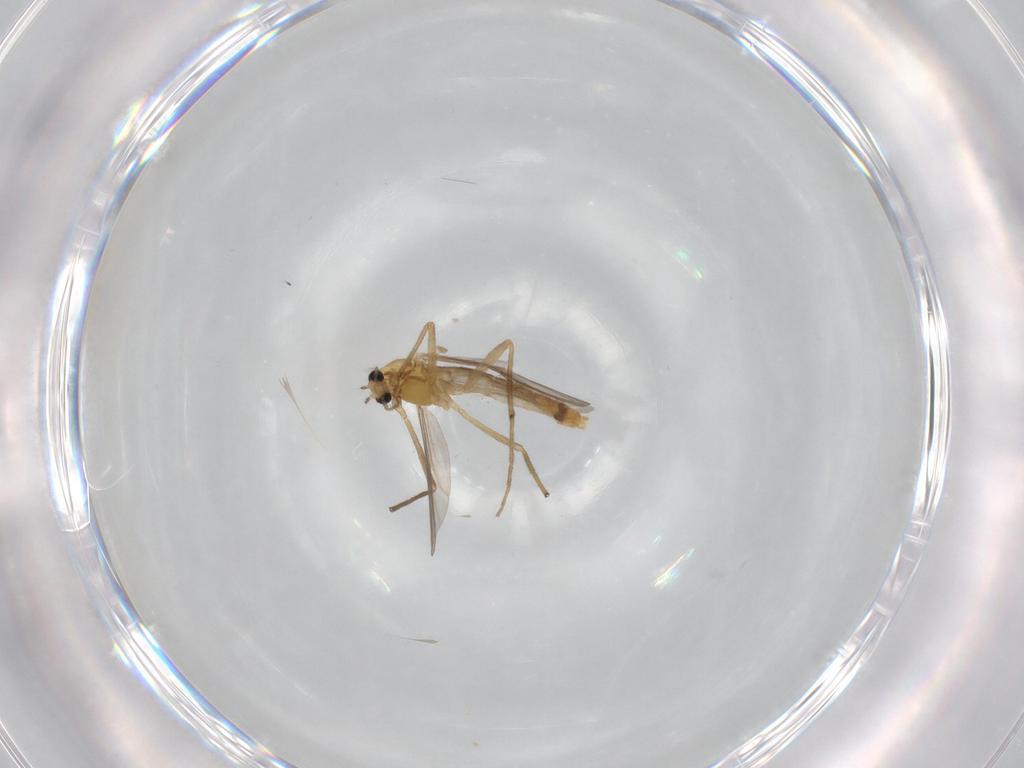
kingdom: Animalia
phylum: Arthropoda
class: Insecta
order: Diptera
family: Chironomidae
